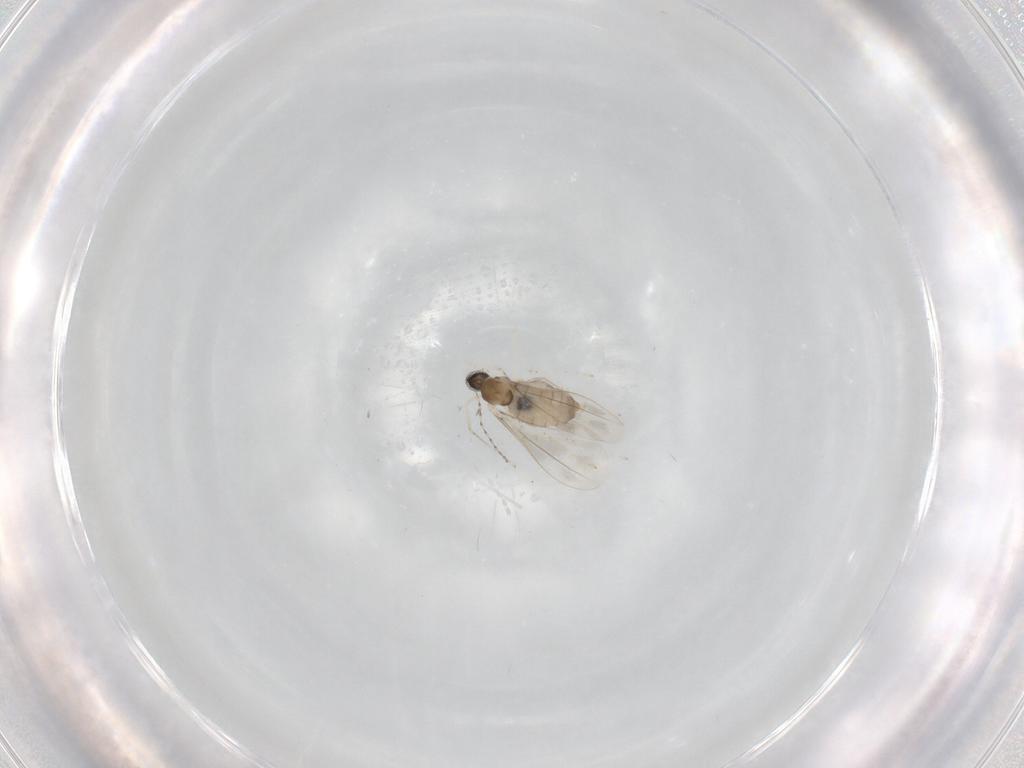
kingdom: Animalia
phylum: Arthropoda
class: Insecta
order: Diptera
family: Cecidomyiidae
